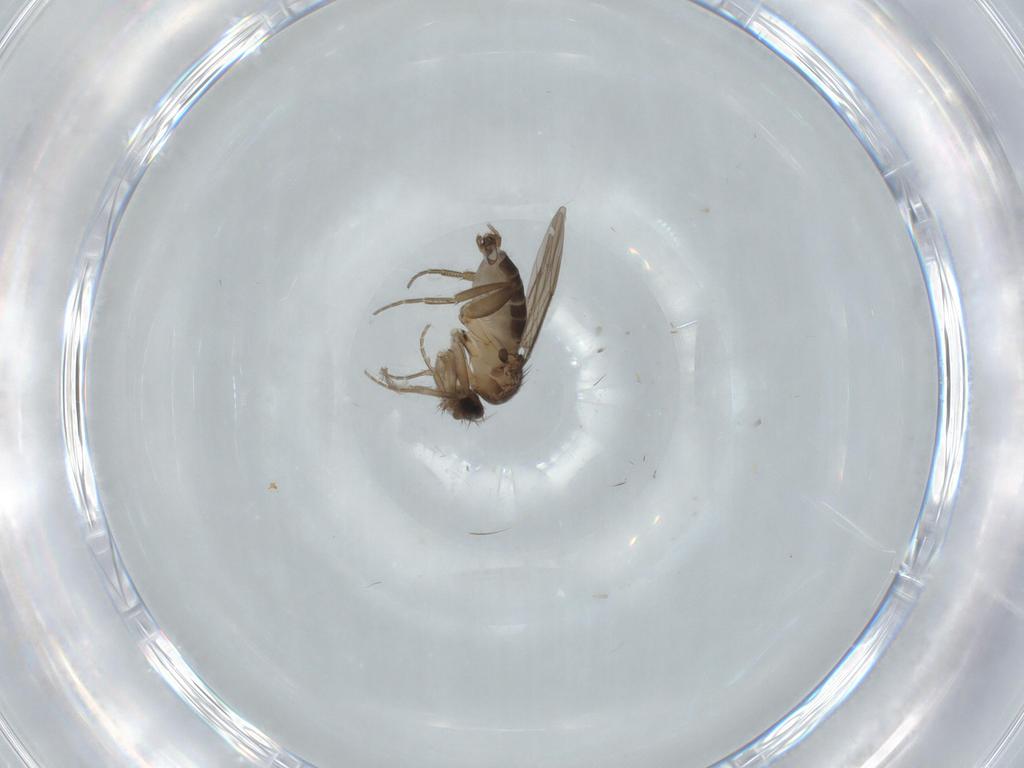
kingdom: Animalia
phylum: Arthropoda
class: Insecta
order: Diptera
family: Phoridae
